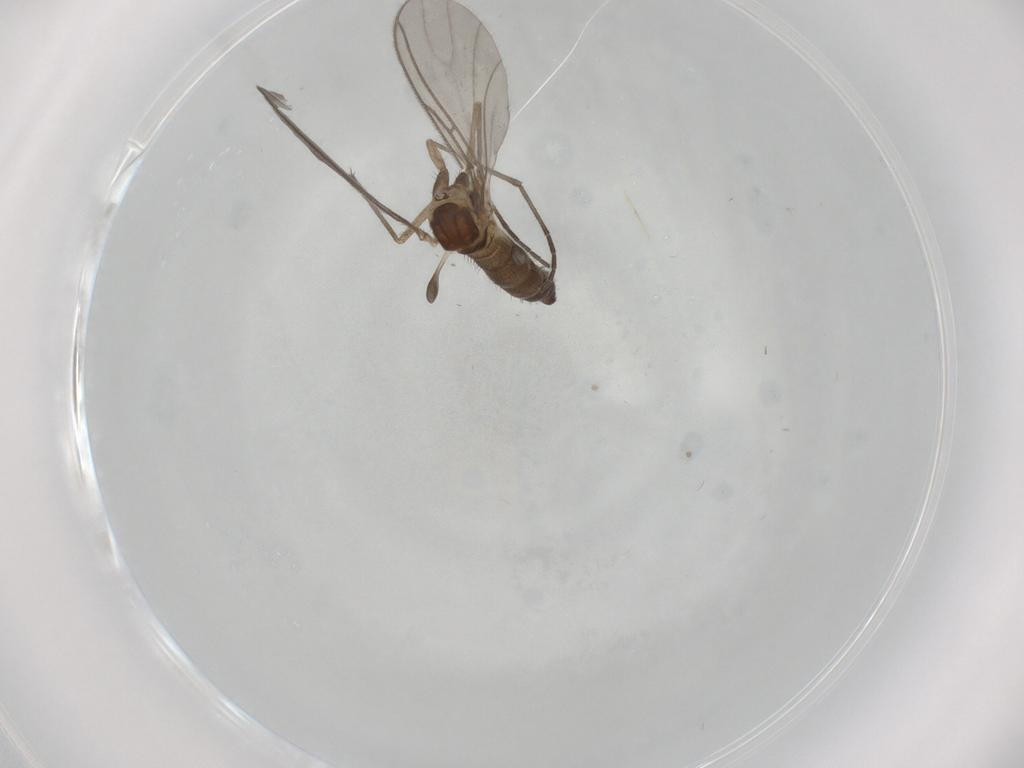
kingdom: Animalia
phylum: Arthropoda
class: Insecta
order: Diptera
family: Sciaridae
